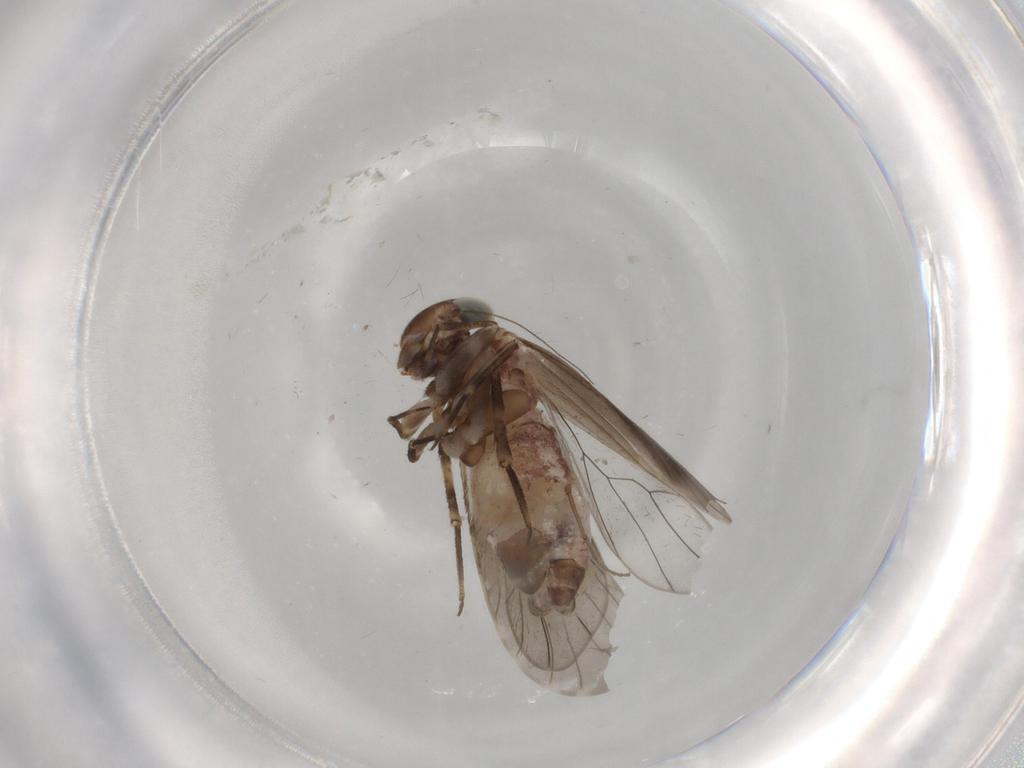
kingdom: Animalia
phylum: Arthropoda
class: Insecta
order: Psocodea
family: Amphientomidae
